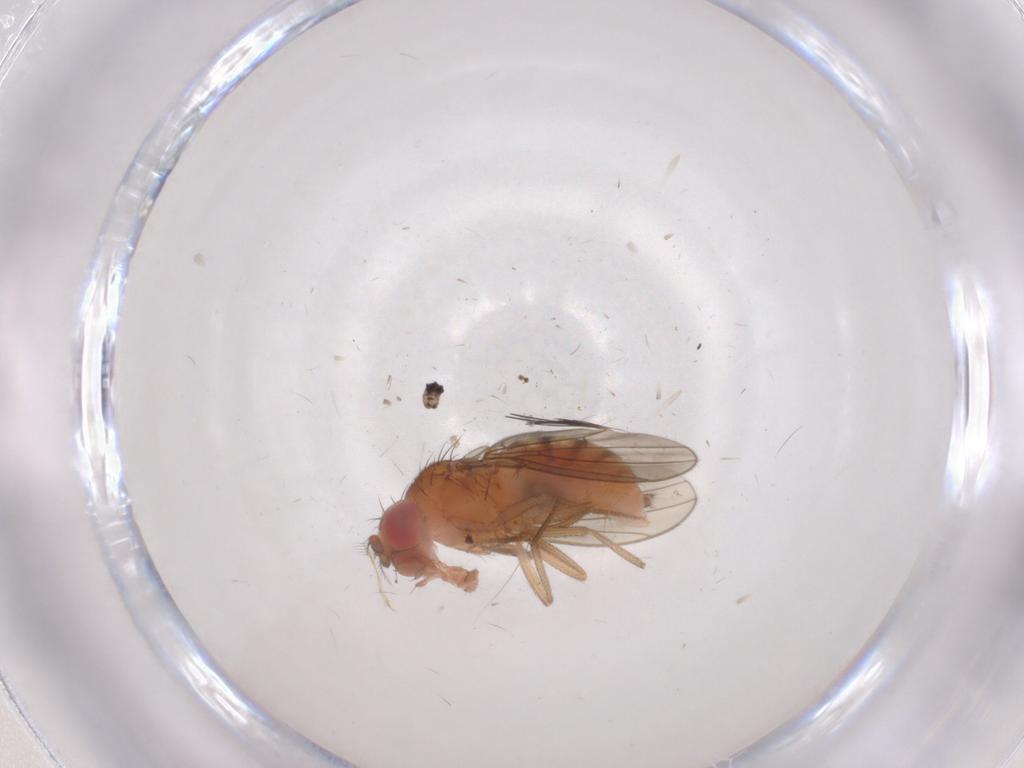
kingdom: Animalia
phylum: Arthropoda
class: Insecta
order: Diptera
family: Drosophilidae
